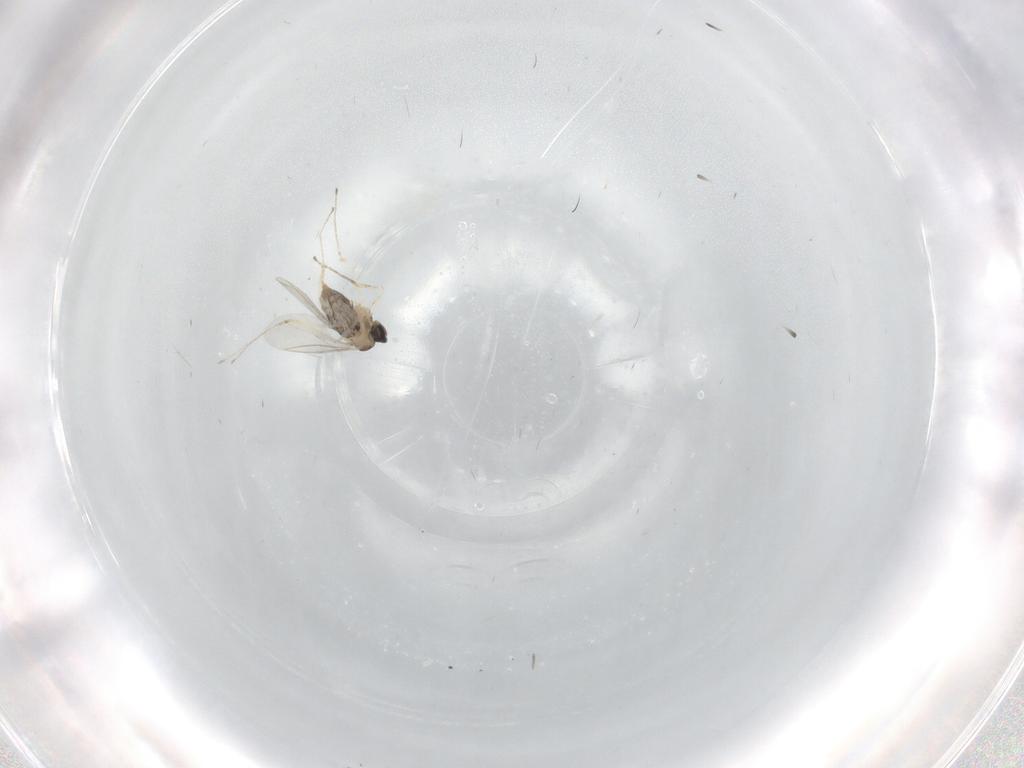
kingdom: Animalia
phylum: Arthropoda
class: Insecta
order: Diptera
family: Cecidomyiidae
